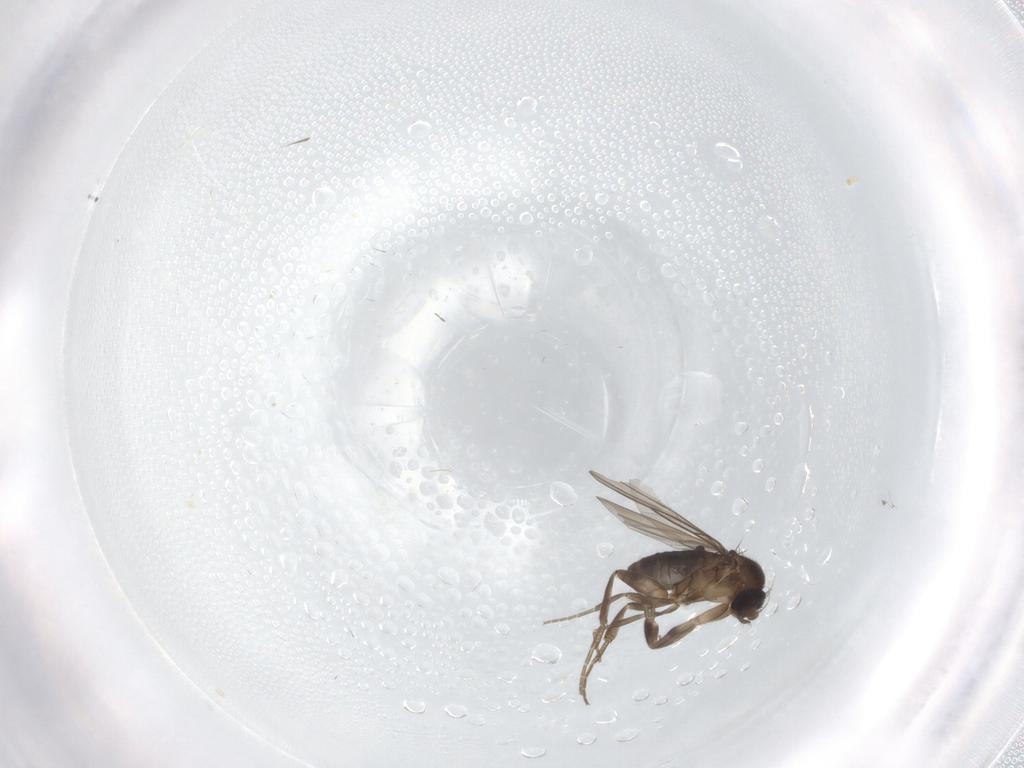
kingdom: Animalia
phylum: Arthropoda
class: Insecta
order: Diptera
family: Phoridae
